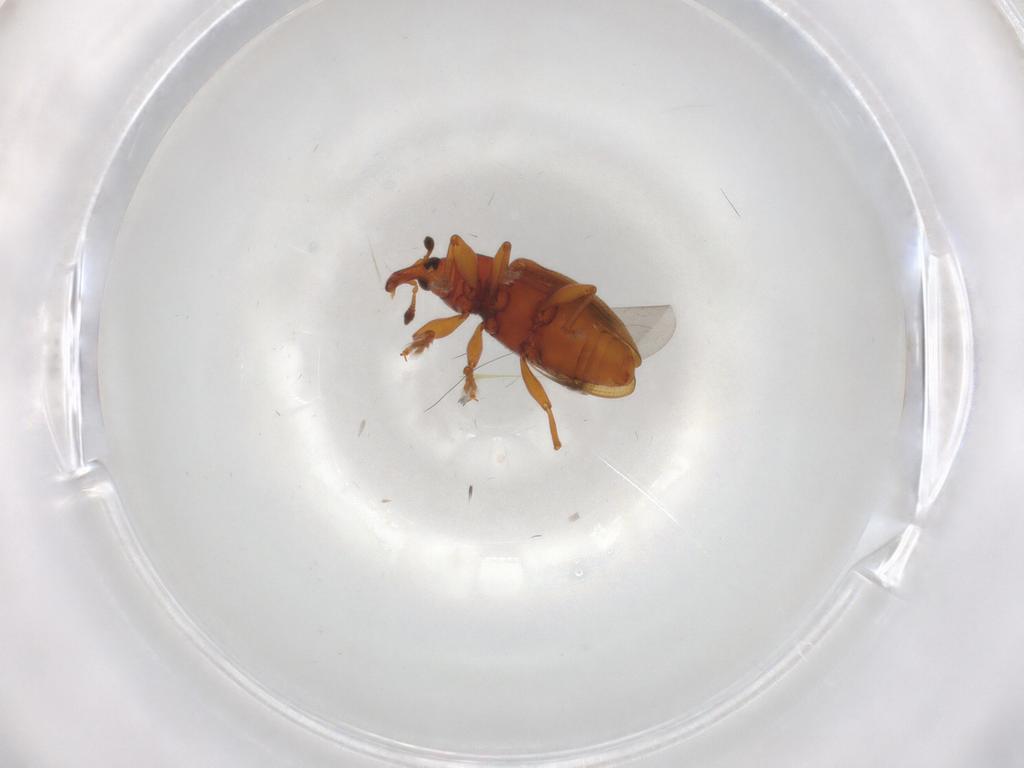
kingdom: Animalia
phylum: Arthropoda
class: Insecta
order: Coleoptera
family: Curculionidae
